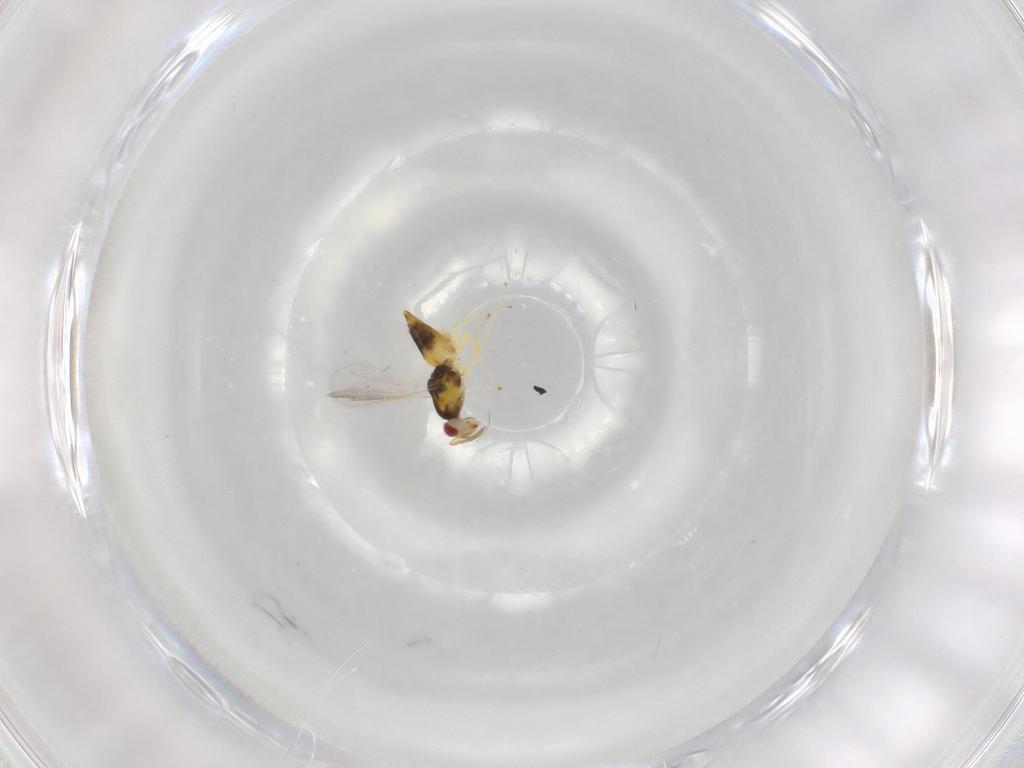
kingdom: Animalia
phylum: Arthropoda
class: Insecta
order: Hymenoptera
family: Eulophidae
